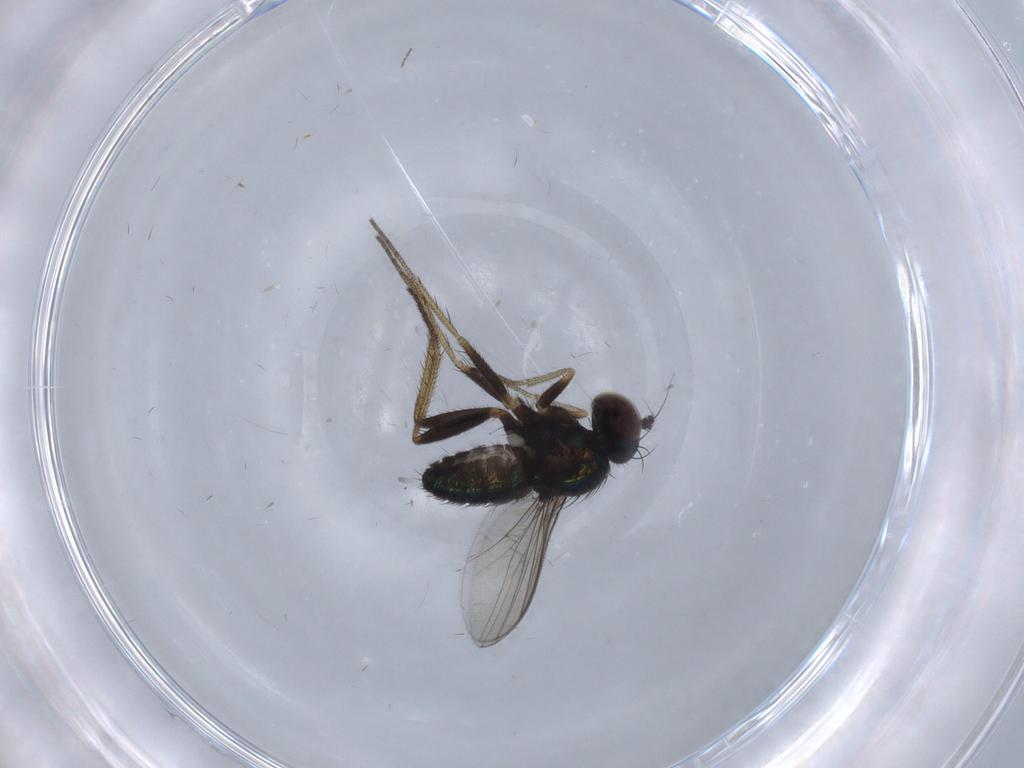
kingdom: Animalia
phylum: Arthropoda
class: Insecta
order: Diptera
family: Dolichopodidae
